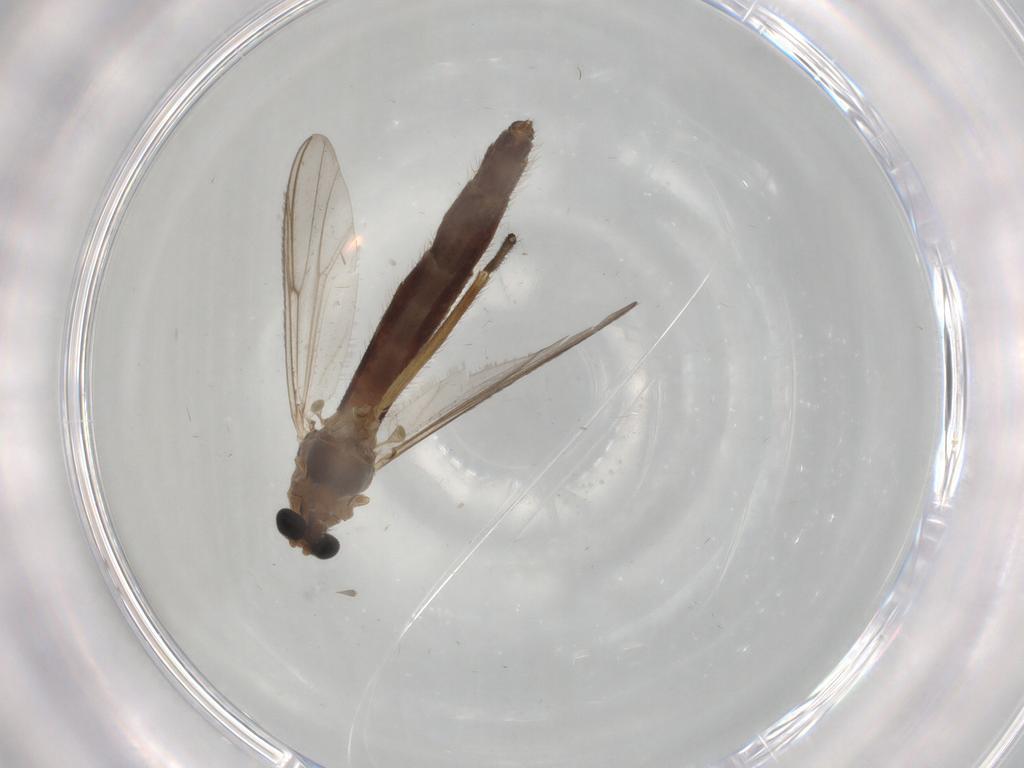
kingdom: Animalia
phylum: Arthropoda
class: Insecta
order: Diptera
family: Chironomidae
